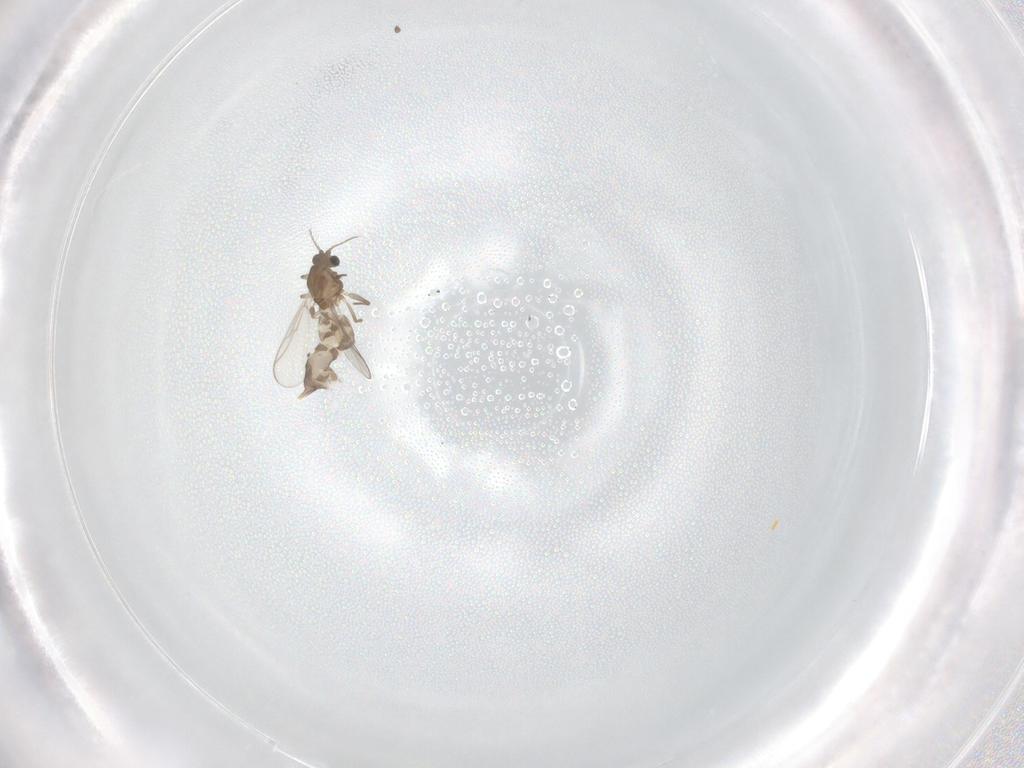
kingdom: Animalia
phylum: Arthropoda
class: Insecta
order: Diptera
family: Chironomidae
